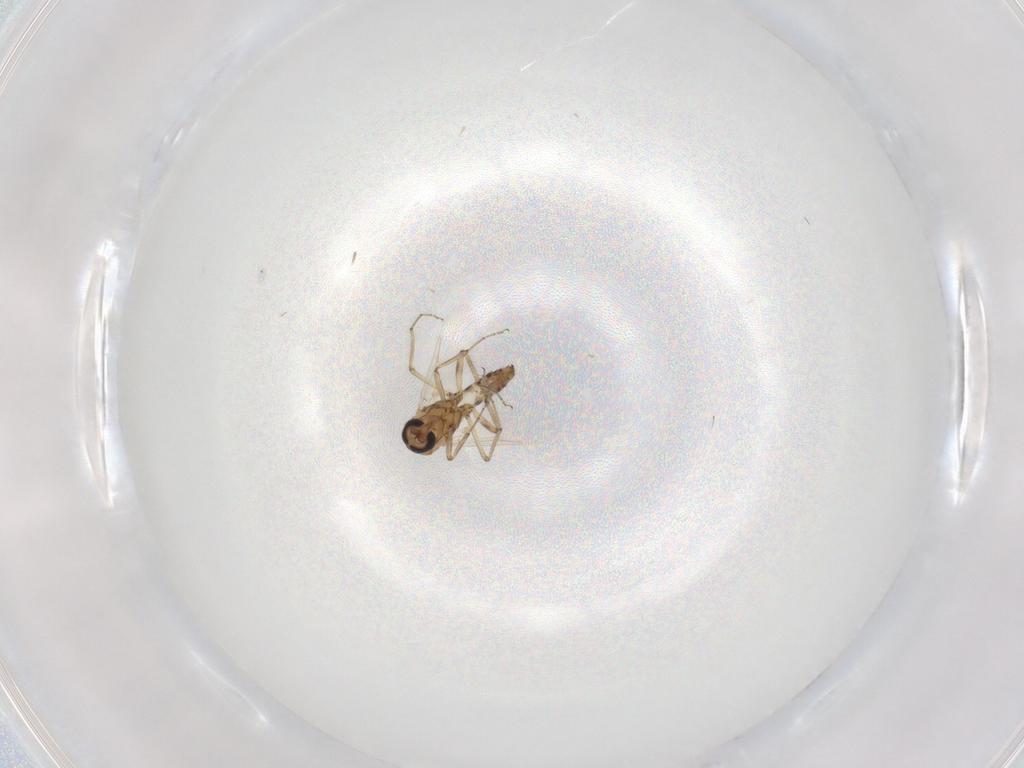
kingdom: Animalia
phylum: Arthropoda
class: Insecta
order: Diptera
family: Ceratopogonidae
